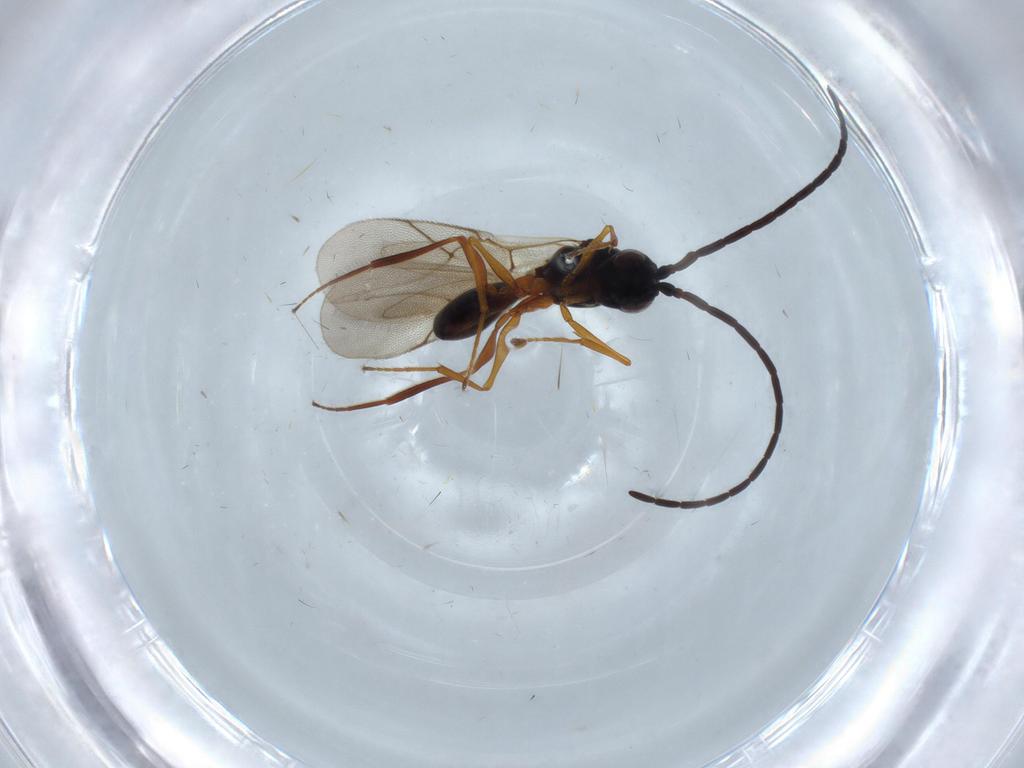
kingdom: Animalia
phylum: Arthropoda
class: Insecta
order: Hymenoptera
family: Figitidae
